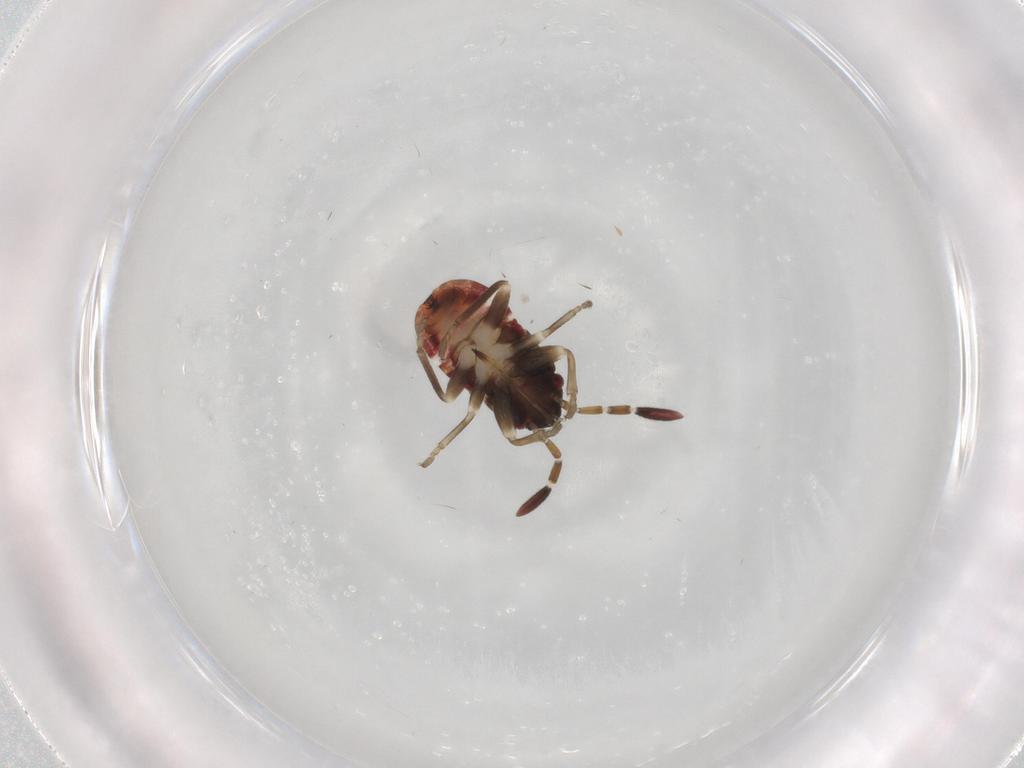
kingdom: Animalia
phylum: Arthropoda
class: Insecta
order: Hemiptera
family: Rhyparochromidae
